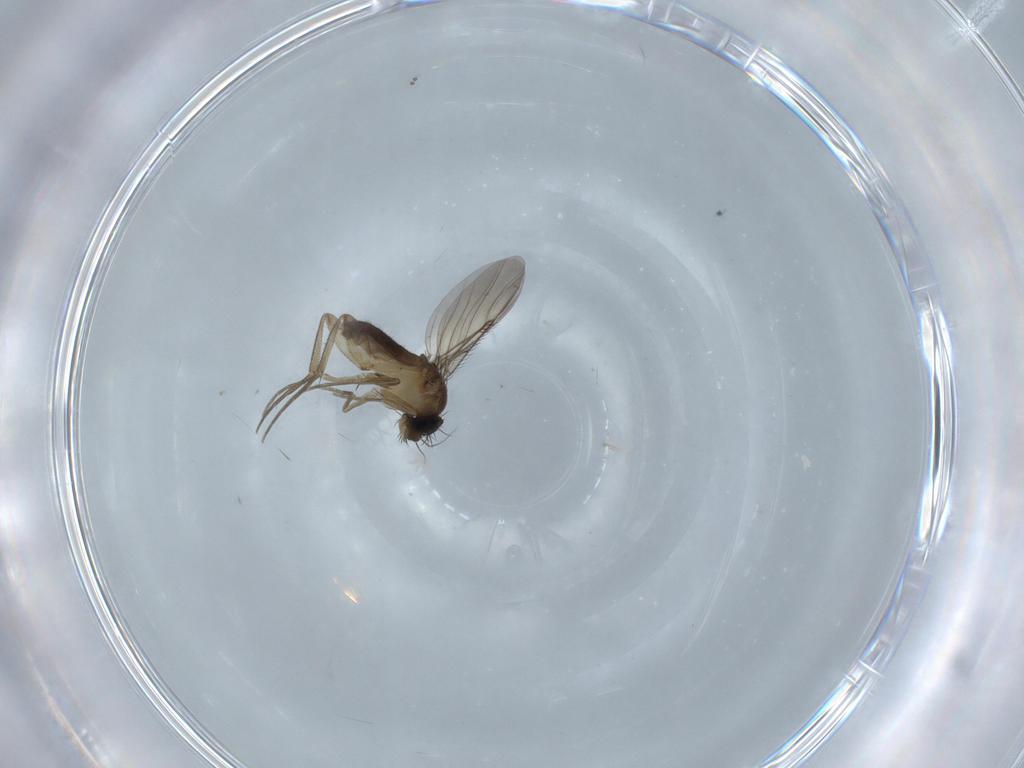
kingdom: Animalia
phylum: Arthropoda
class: Insecta
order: Diptera
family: Phoridae
